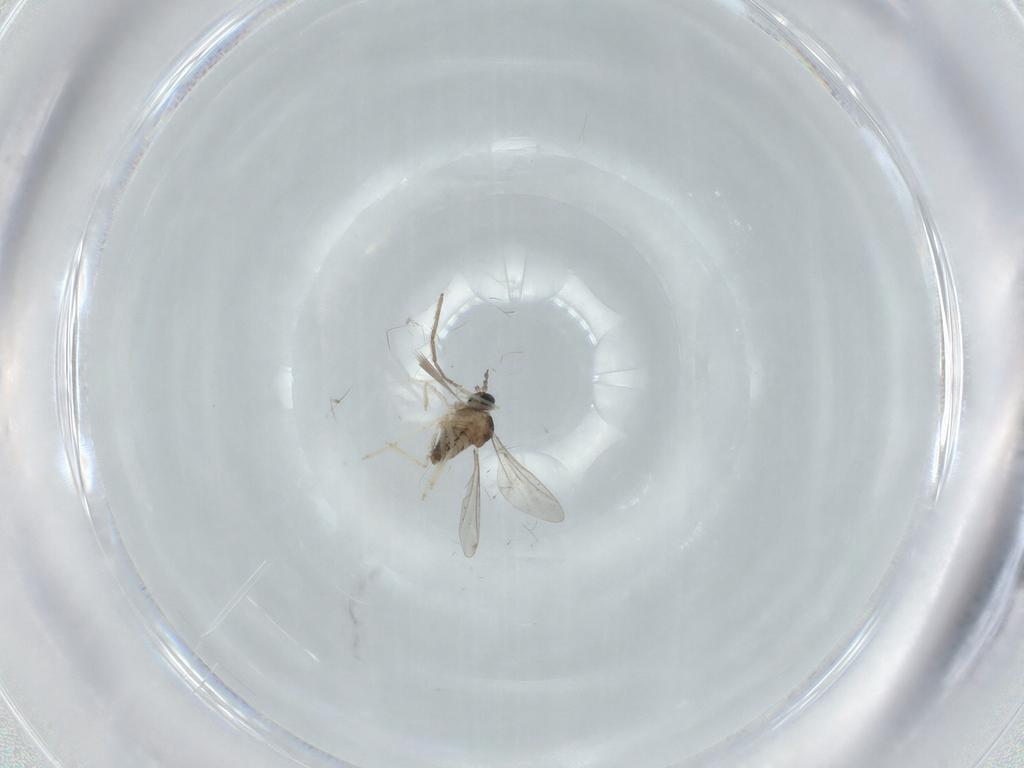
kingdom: Animalia
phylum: Arthropoda
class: Insecta
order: Diptera
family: Cecidomyiidae
